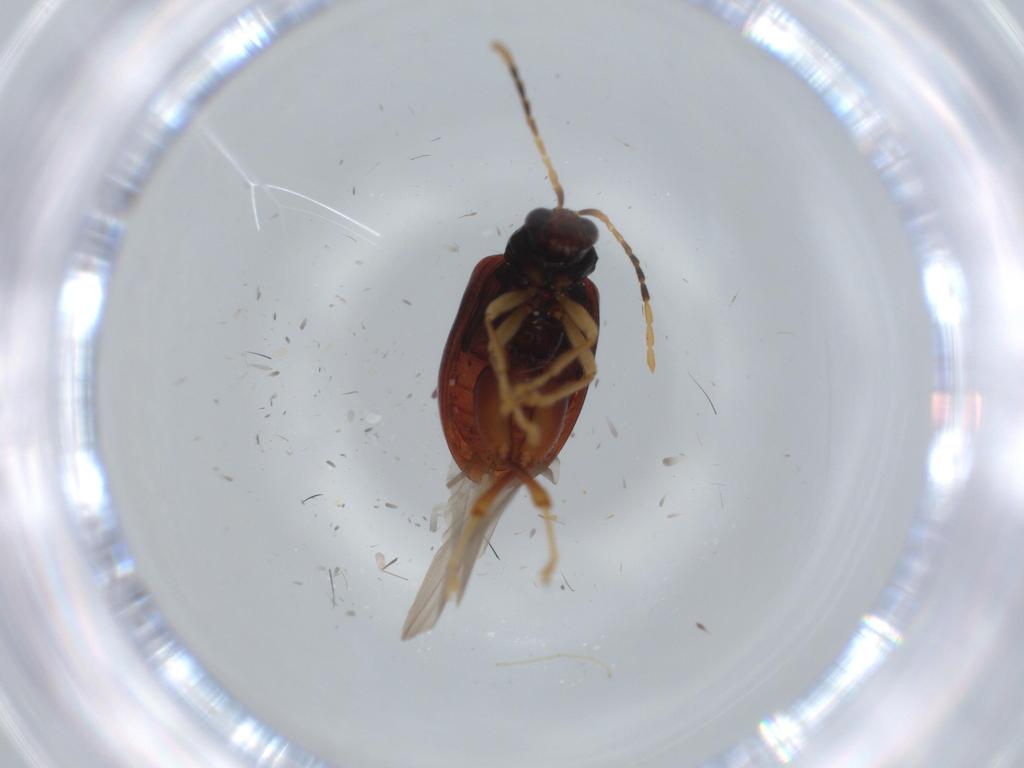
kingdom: Animalia
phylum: Arthropoda
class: Insecta
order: Coleoptera
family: Chrysomelidae
